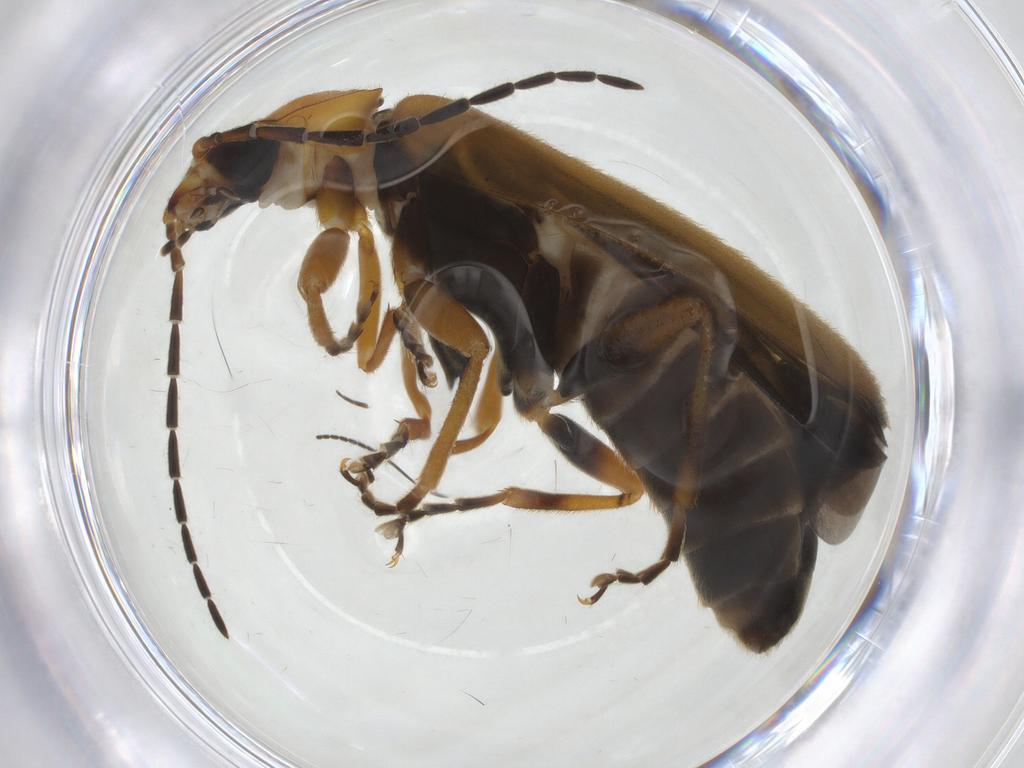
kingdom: Animalia
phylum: Arthropoda
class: Insecta
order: Coleoptera
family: Cantharidae
